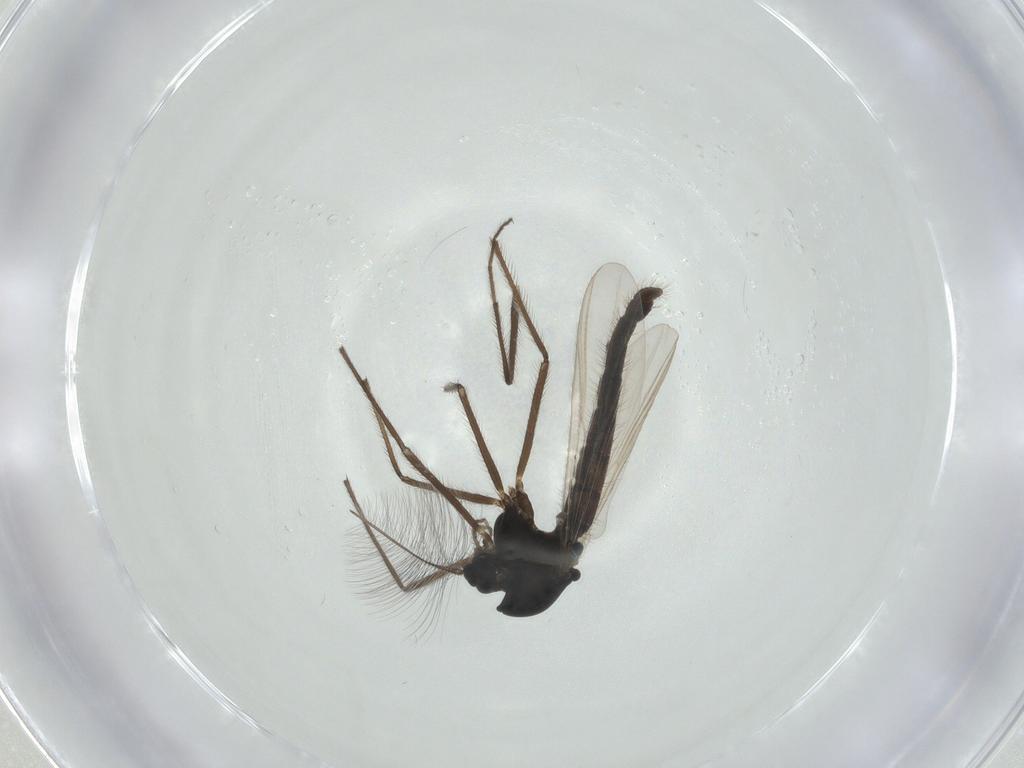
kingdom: Animalia
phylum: Arthropoda
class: Insecta
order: Diptera
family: Chironomidae
